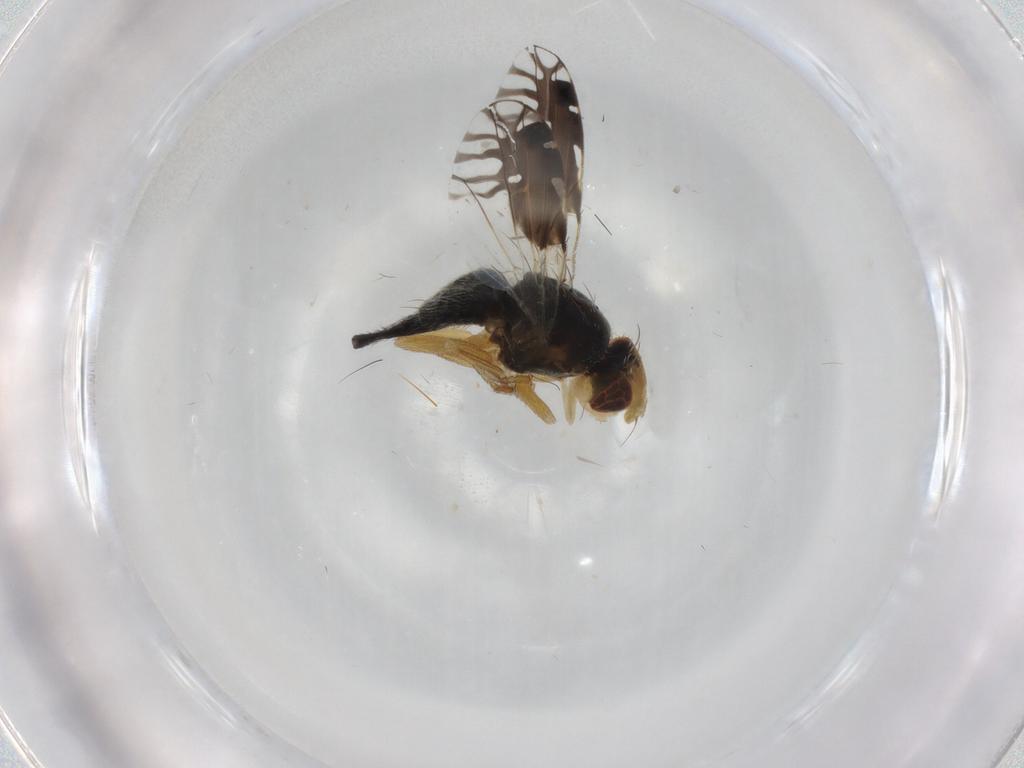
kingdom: Animalia
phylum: Arthropoda
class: Insecta
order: Diptera
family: Tephritidae
